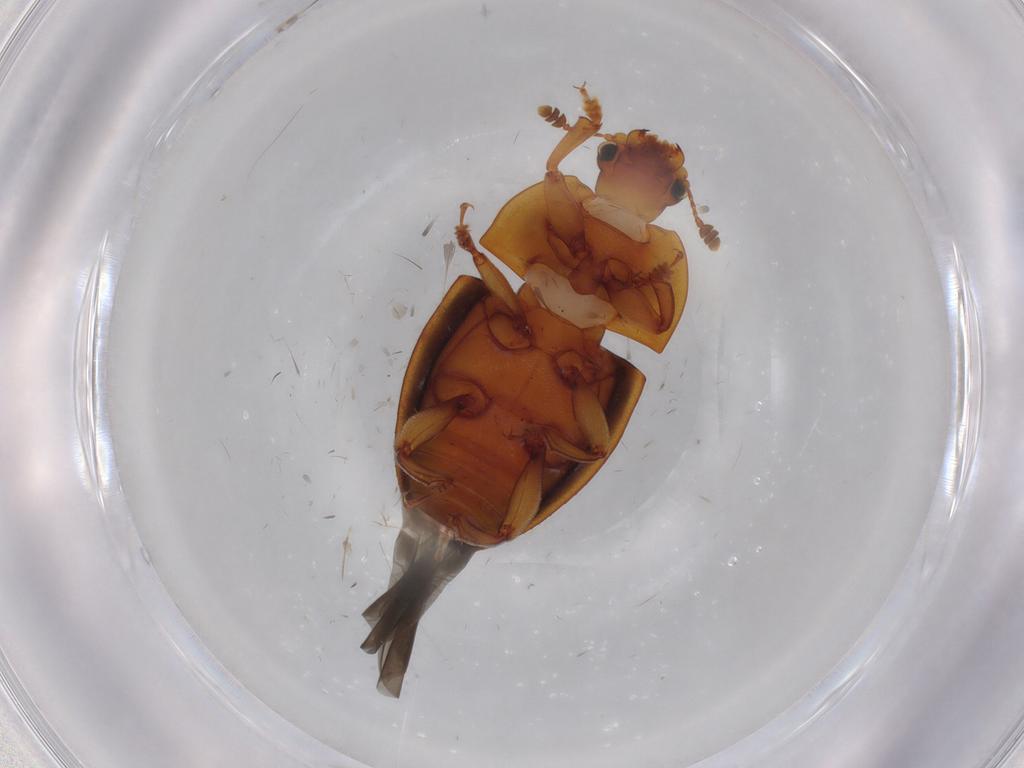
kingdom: Animalia
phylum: Arthropoda
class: Insecta
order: Coleoptera
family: Nitidulidae
